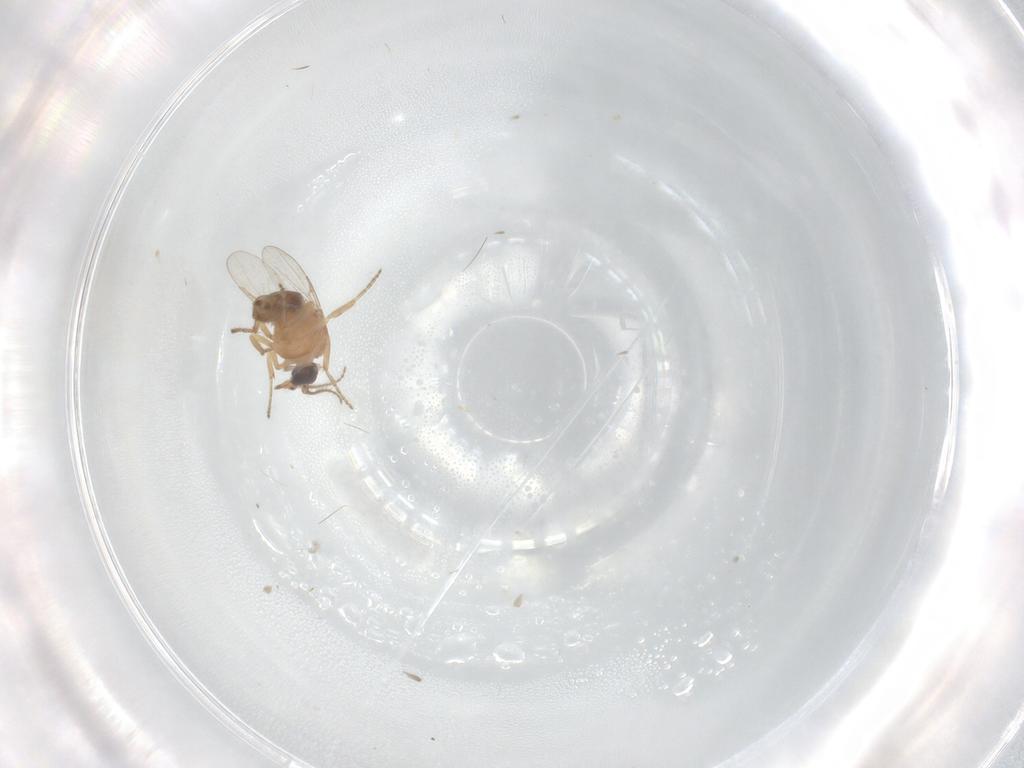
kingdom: Animalia
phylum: Arthropoda
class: Insecta
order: Diptera
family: Ceratopogonidae
